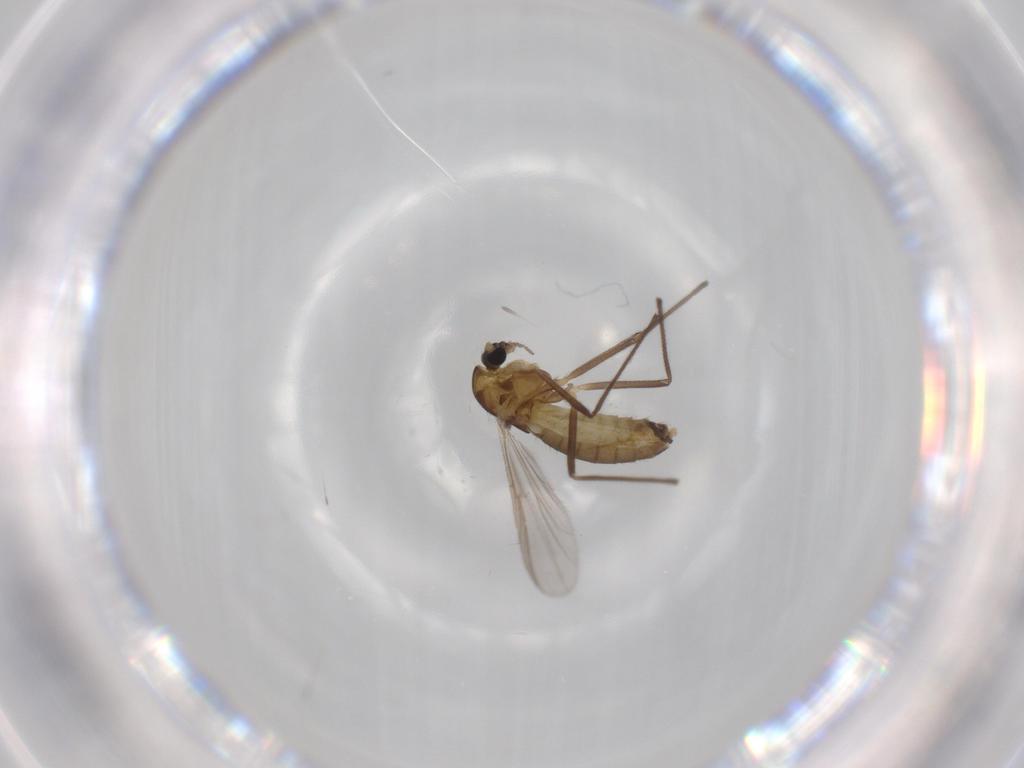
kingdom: Animalia
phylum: Arthropoda
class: Insecta
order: Diptera
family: Chironomidae
